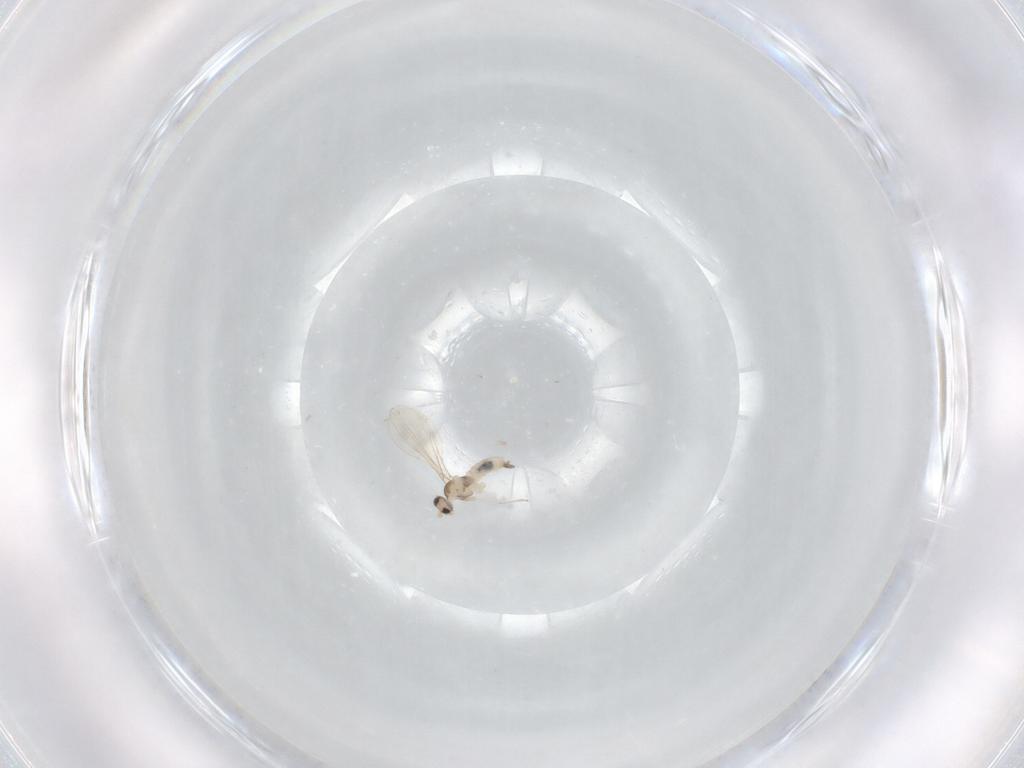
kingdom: Animalia
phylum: Arthropoda
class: Insecta
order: Diptera
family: Cecidomyiidae
